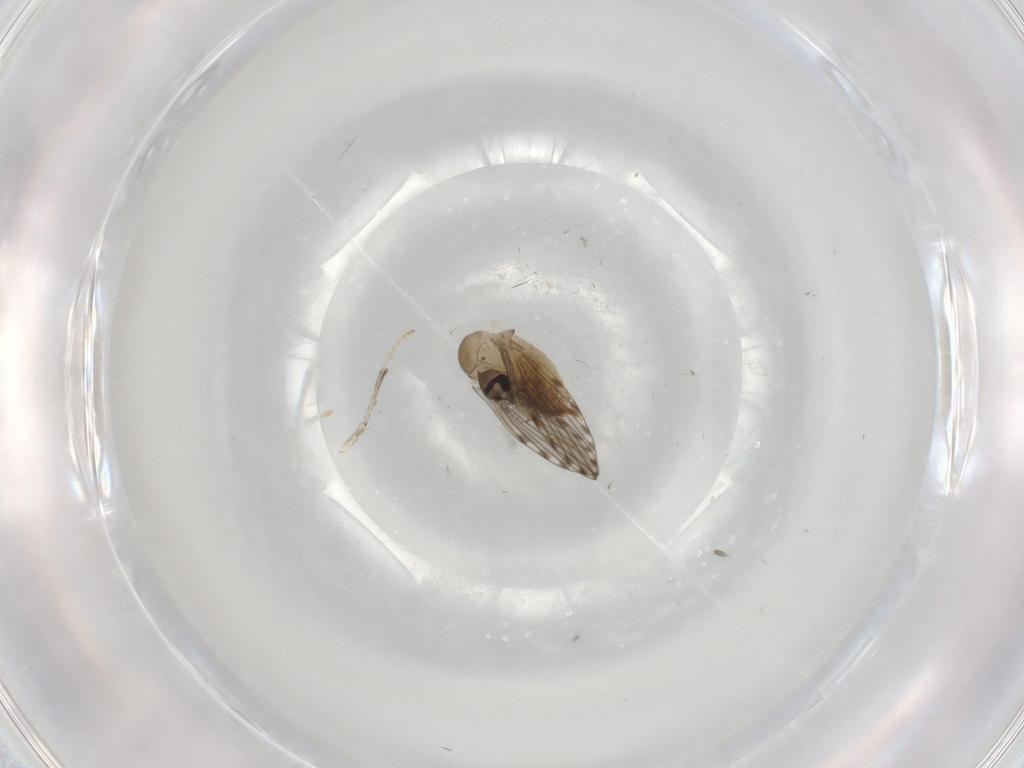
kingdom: Animalia
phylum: Arthropoda
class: Insecta
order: Diptera
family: Psychodidae
